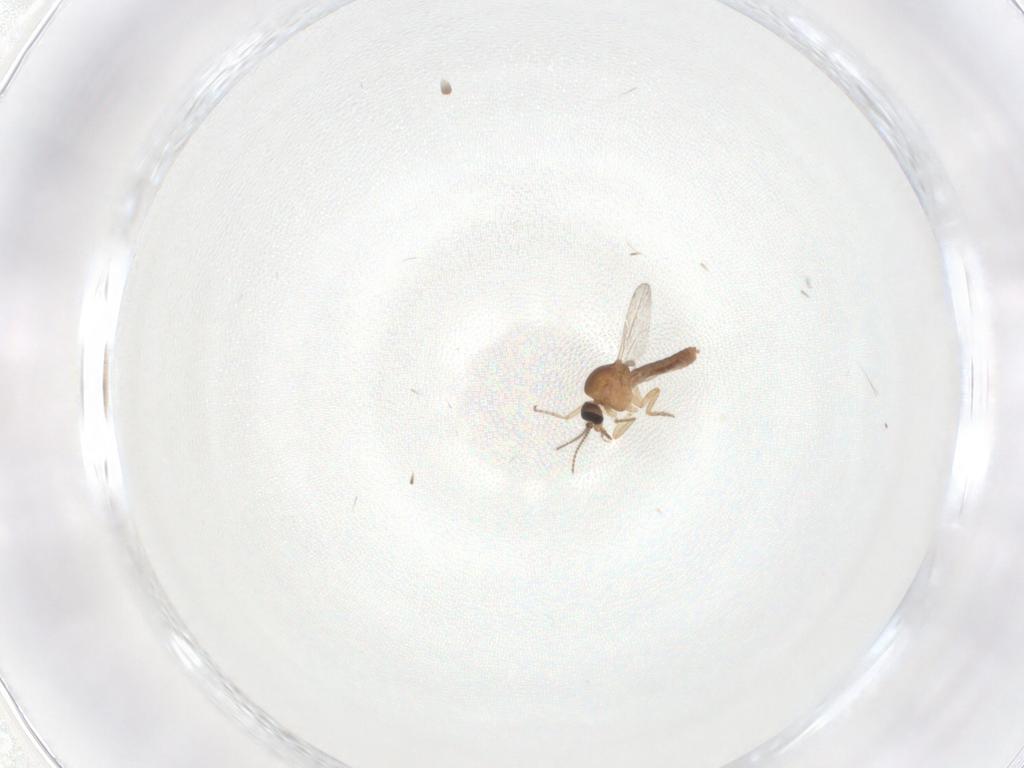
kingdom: Animalia
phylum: Arthropoda
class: Insecta
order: Diptera
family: Ceratopogonidae
